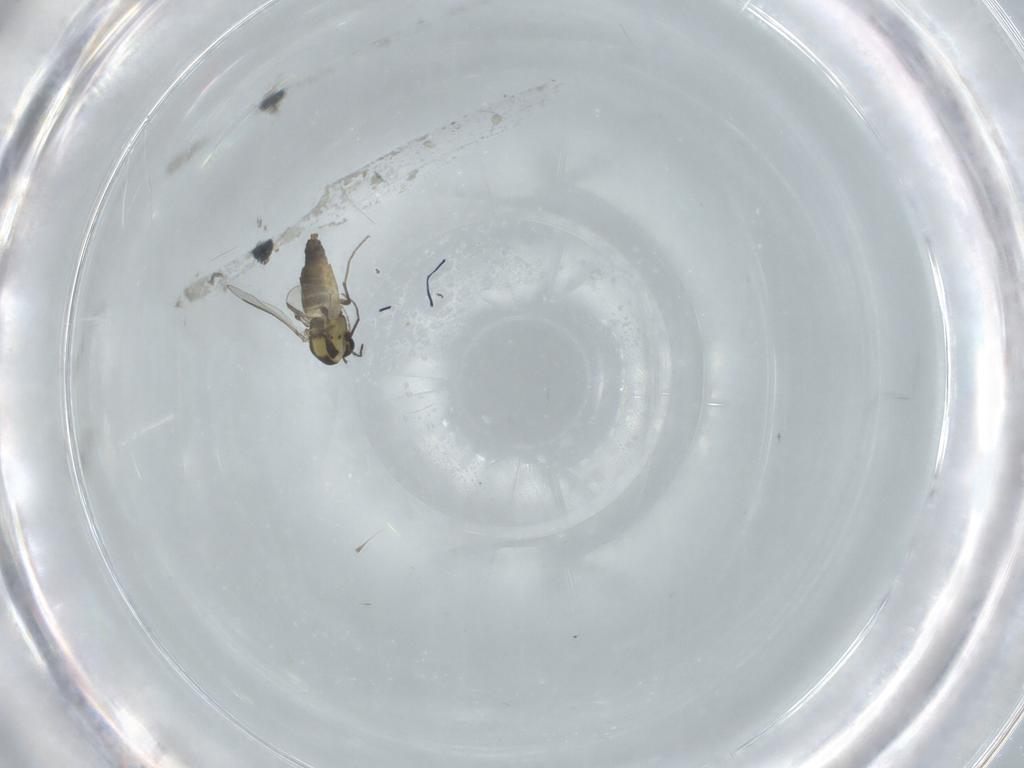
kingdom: Animalia
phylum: Arthropoda
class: Insecta
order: Diptera
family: Chironomidae
